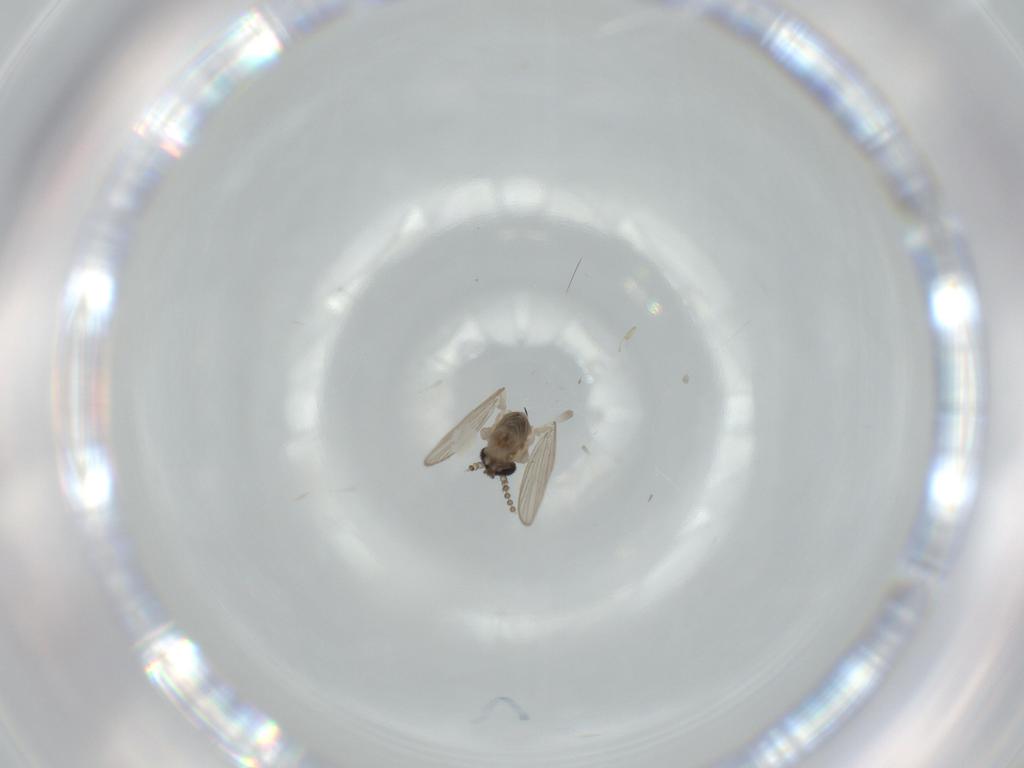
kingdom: Animalia
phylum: Arthropoda
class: Insecta
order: Diptera
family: Psychodidae
